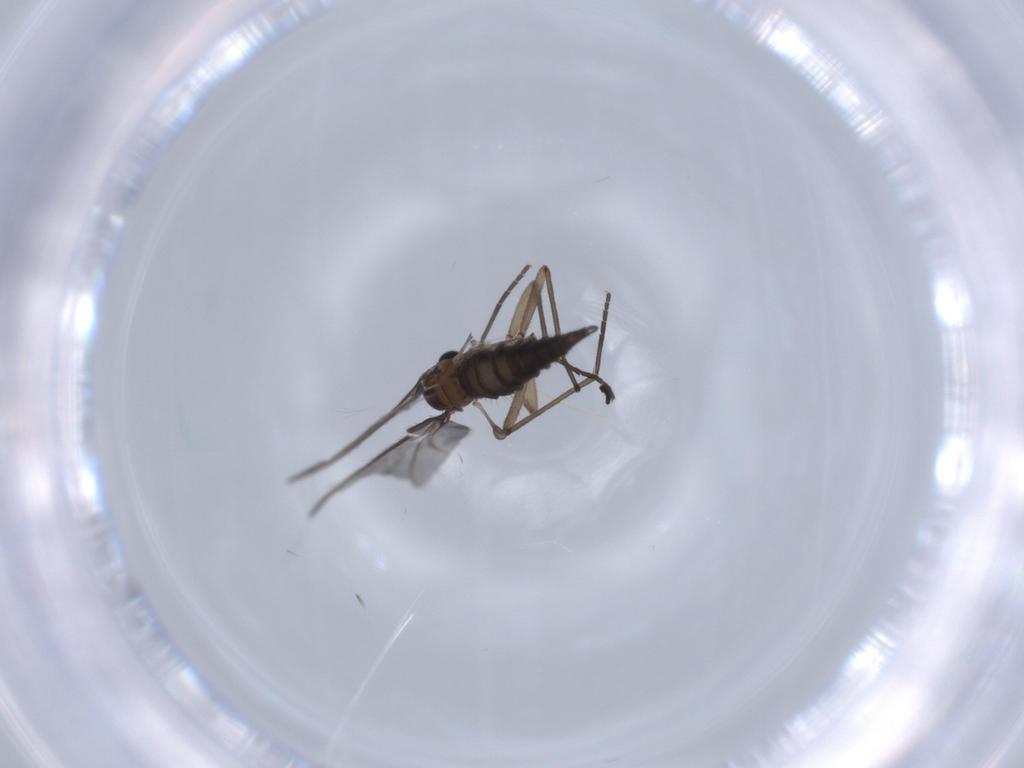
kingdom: Animalia
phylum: Arthropoda
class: Insecta
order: Diptera
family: Sciaridae
